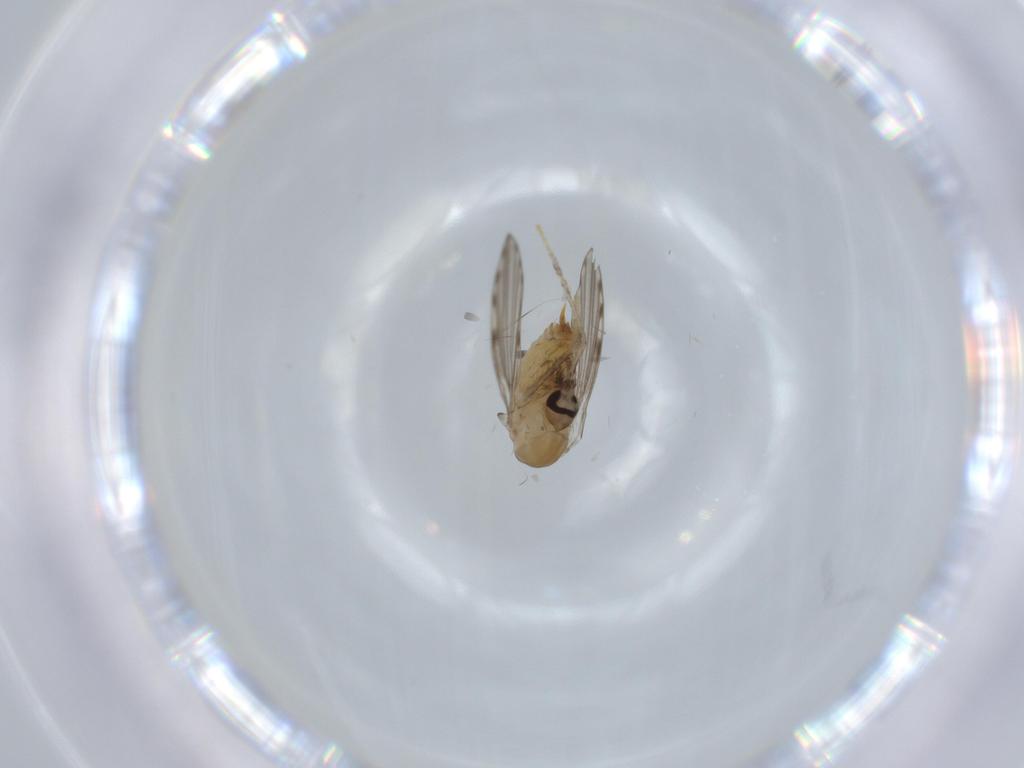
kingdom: Animalia
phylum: Arthropoda
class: Insecta
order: Diptera
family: Psychodidae
